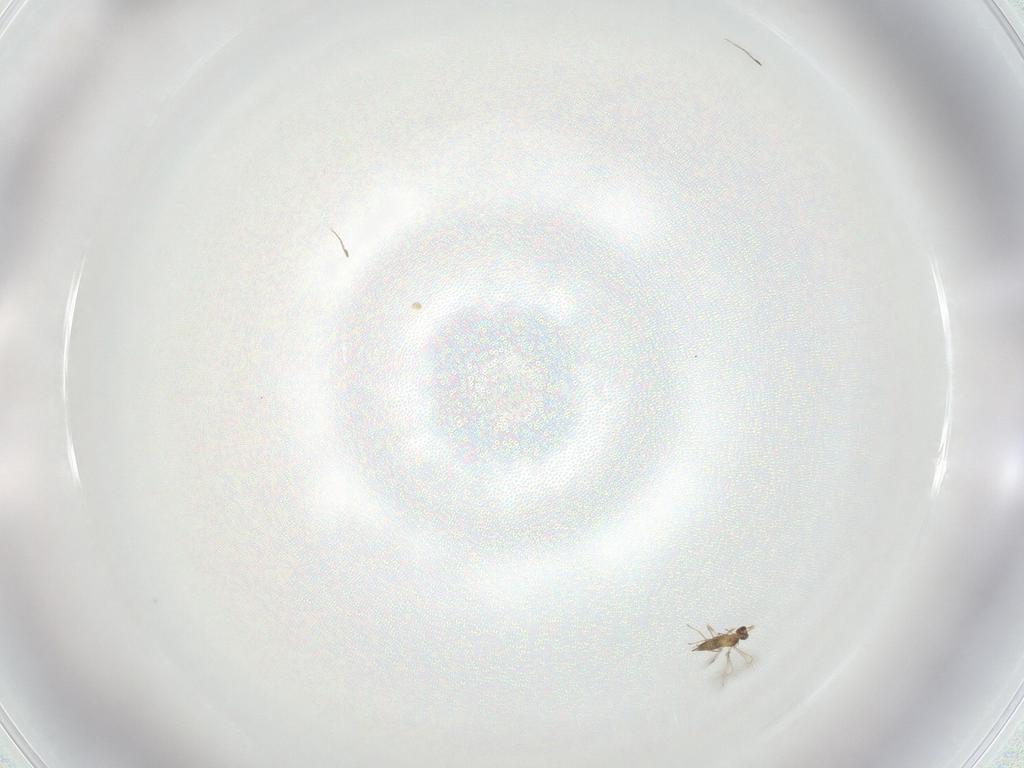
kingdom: Animalia
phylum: Arthropoda
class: Insecta
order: Hymenoptera
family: Mymaridae
